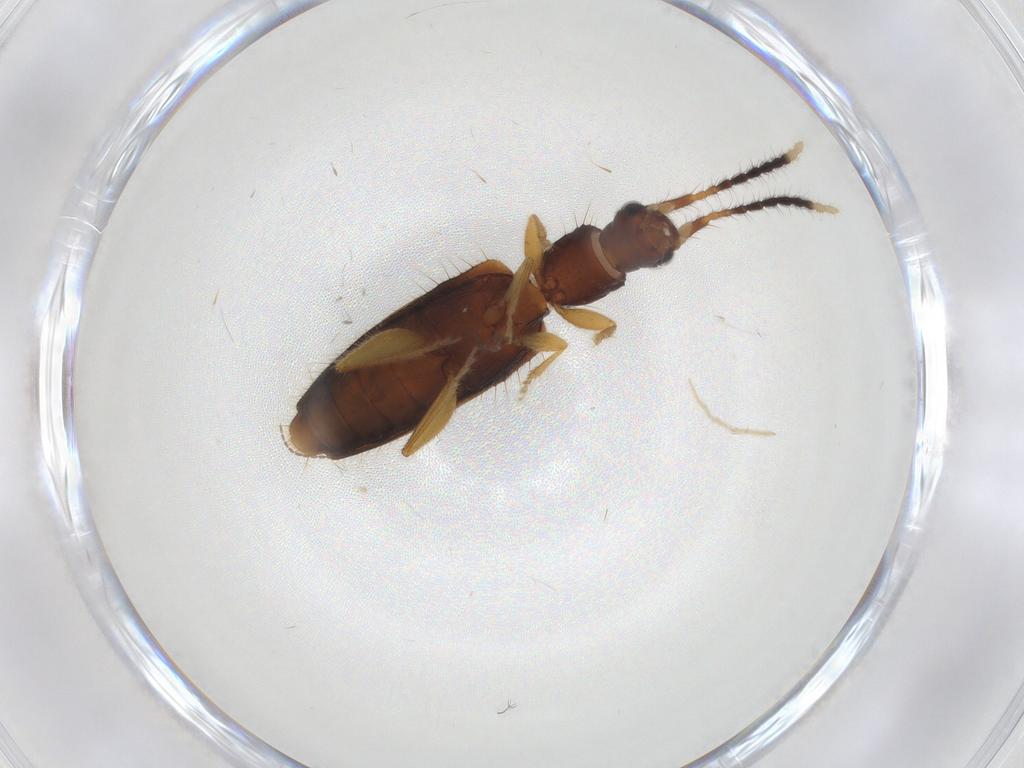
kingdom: Animalia
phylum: Arthropoda
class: Insecta
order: Coleoptera
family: Silvanidae
